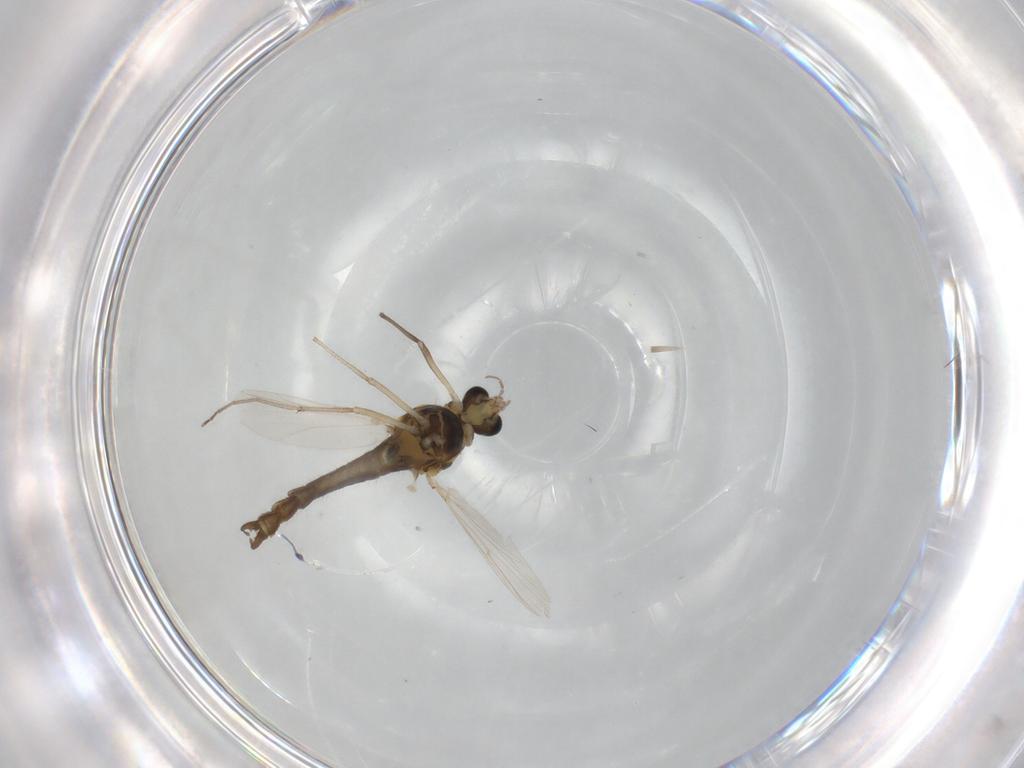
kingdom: Animalia
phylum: Arthropoda
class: Insecta
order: Diptera
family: Chironomidae
